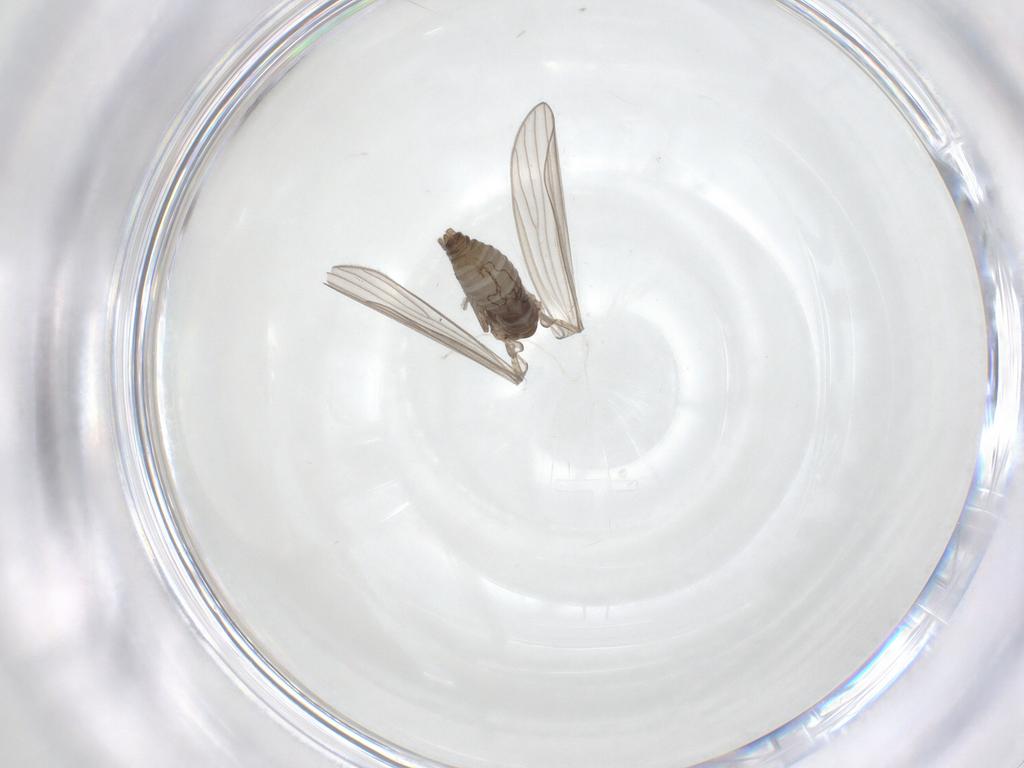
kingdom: Animalia
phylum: Arthropoda
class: Insecta
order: Diptera
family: Psychodidae
